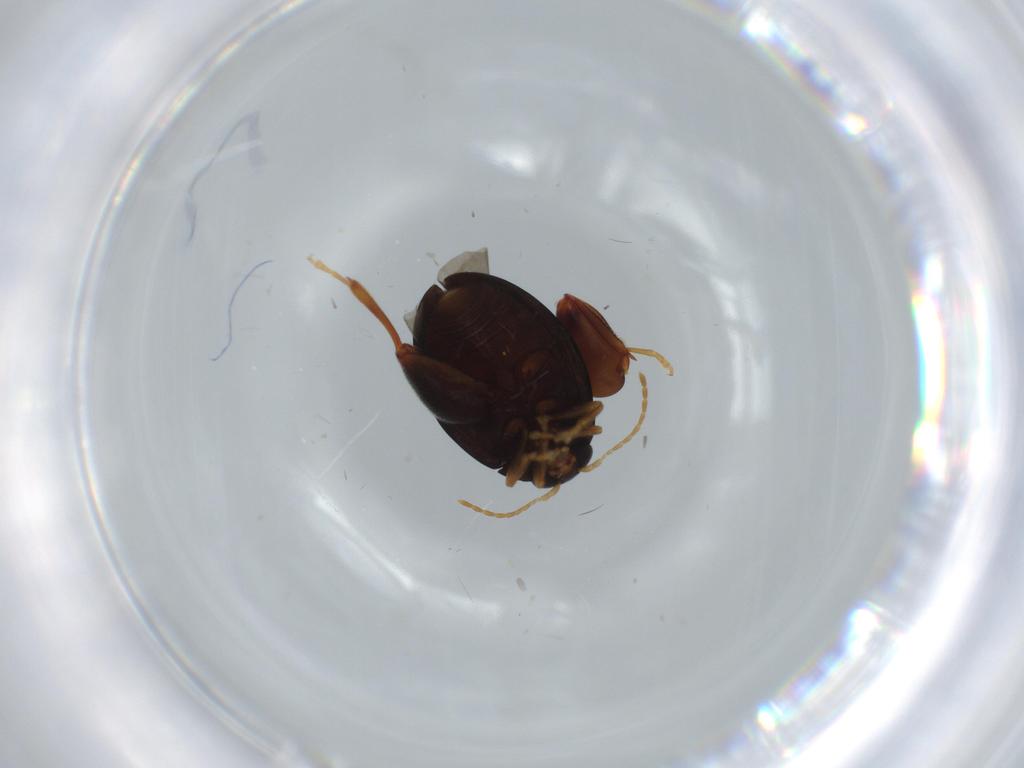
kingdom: Animalia
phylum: Arthropoda
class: Insecta
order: Coleoptera
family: Chrysomelidae
